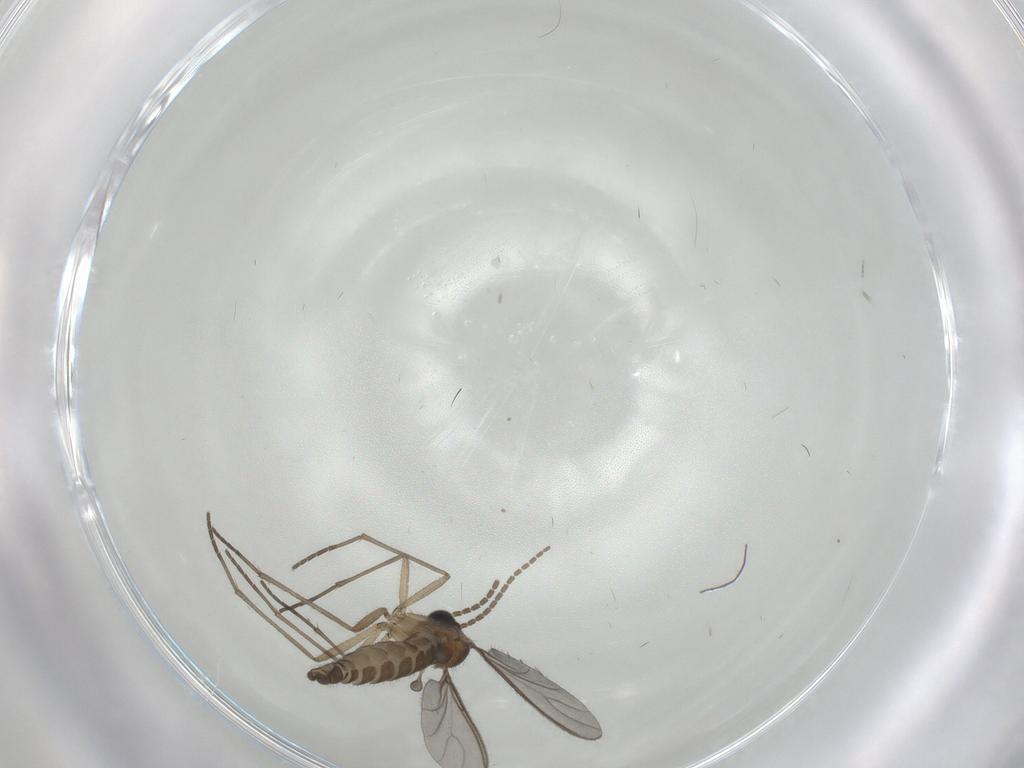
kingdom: Animalia
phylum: Arthropoda
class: Insecta
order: Diptera
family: Sciaridae
